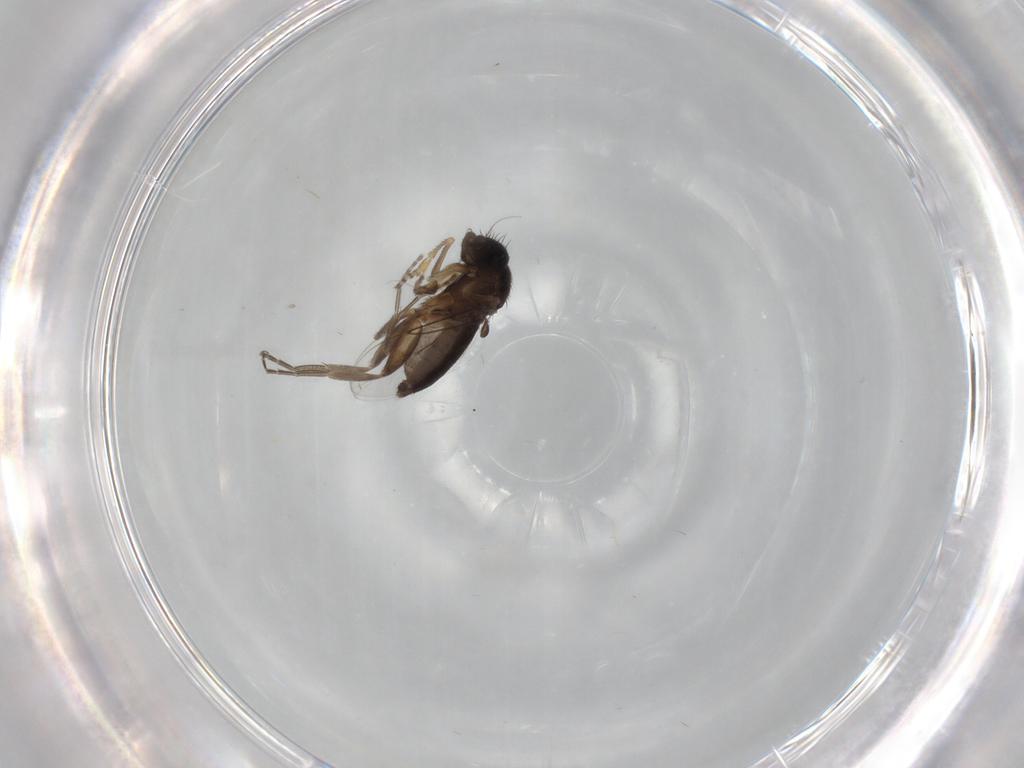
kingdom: Animalia
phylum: Arthropoda
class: Insecta
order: Diptera
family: Phoridae
